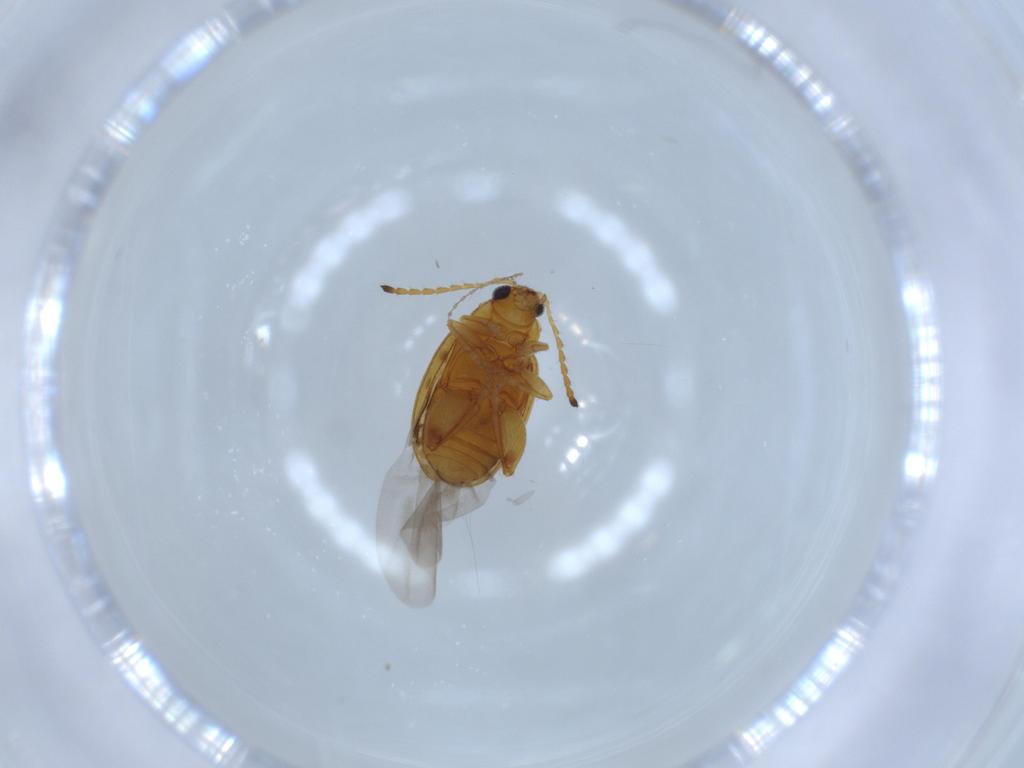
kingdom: Animalia
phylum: Arthropoda
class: Insecta
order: Coleoptera
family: Chrysomelidae
